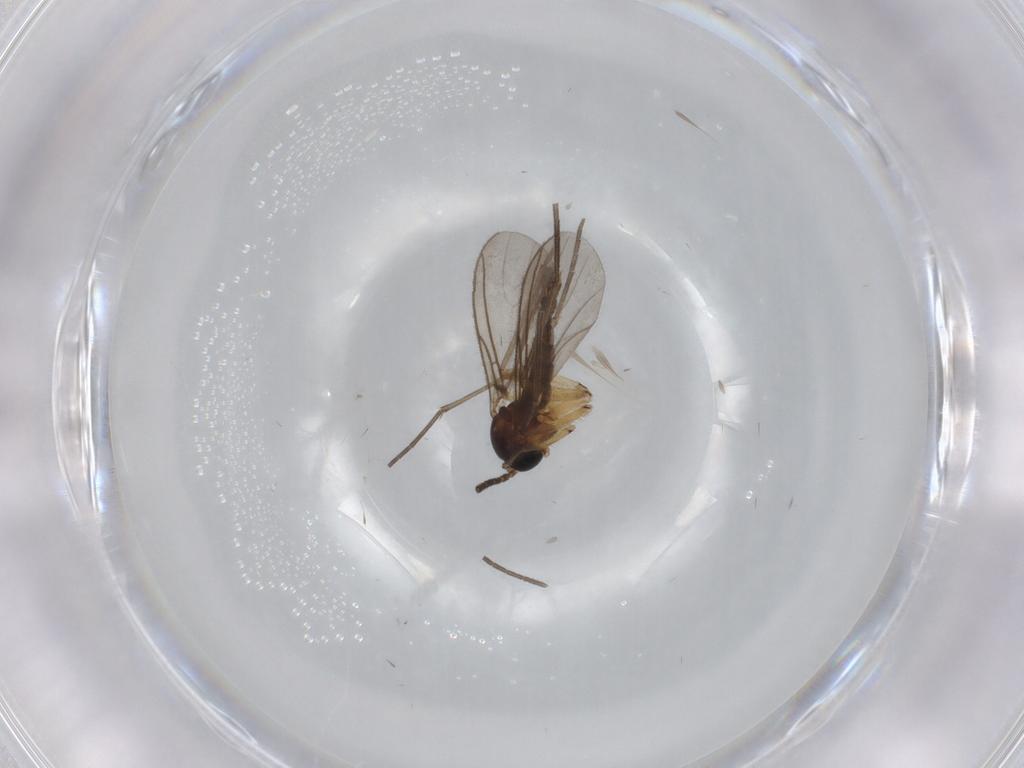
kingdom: Animalia
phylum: Arthropoda
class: Insecta
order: Diptera
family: Sciaridae
